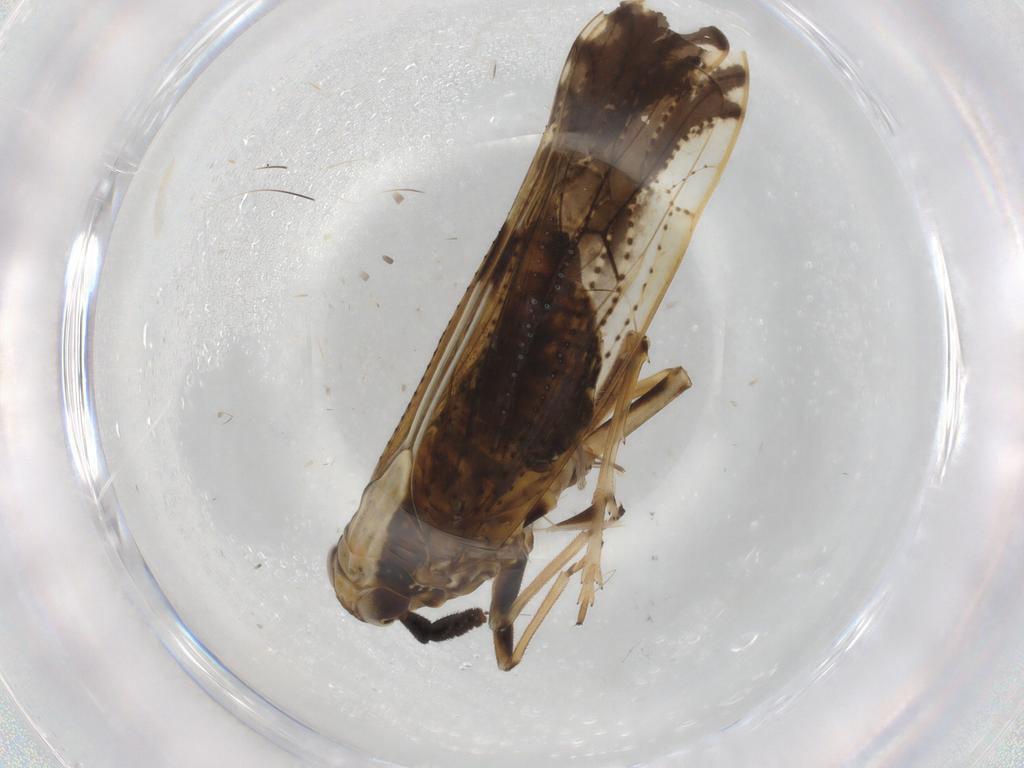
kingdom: Animalia
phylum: Arthropoda
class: Insecta
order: Hemiptera
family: Delphacidae
